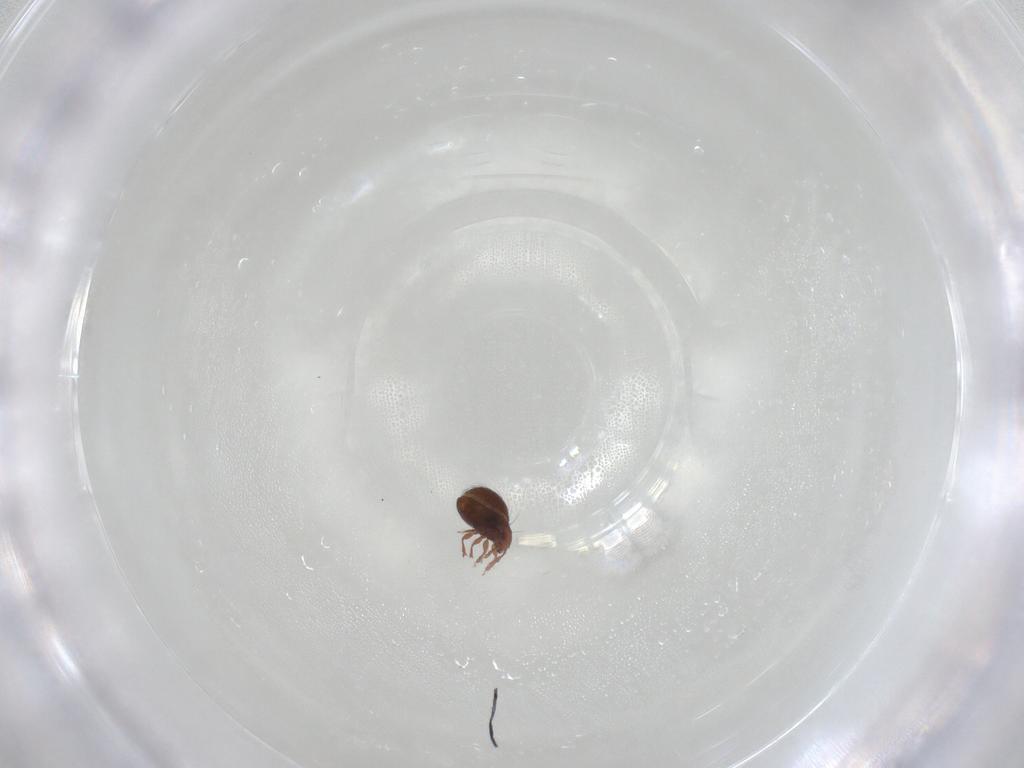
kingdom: Animalia
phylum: Arthropoda
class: Arachnida
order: Sarcoptiformes
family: Oribatulidae
